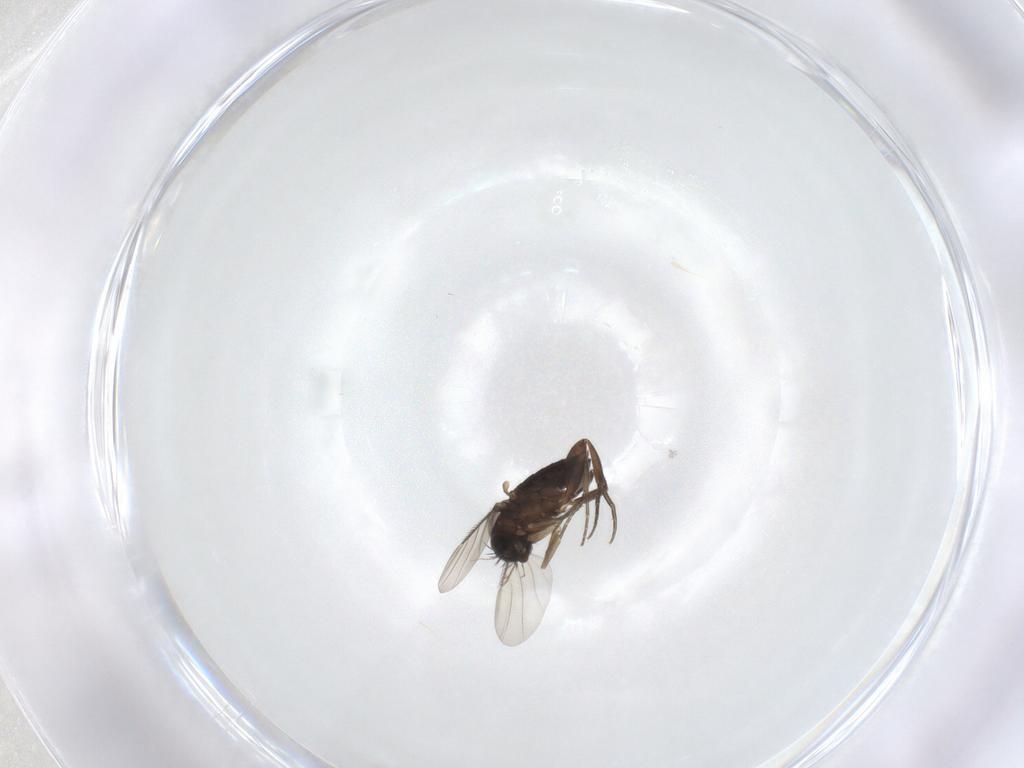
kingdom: Animalia
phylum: Arthropoda
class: Insecta
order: Diptera
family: Phoridae
